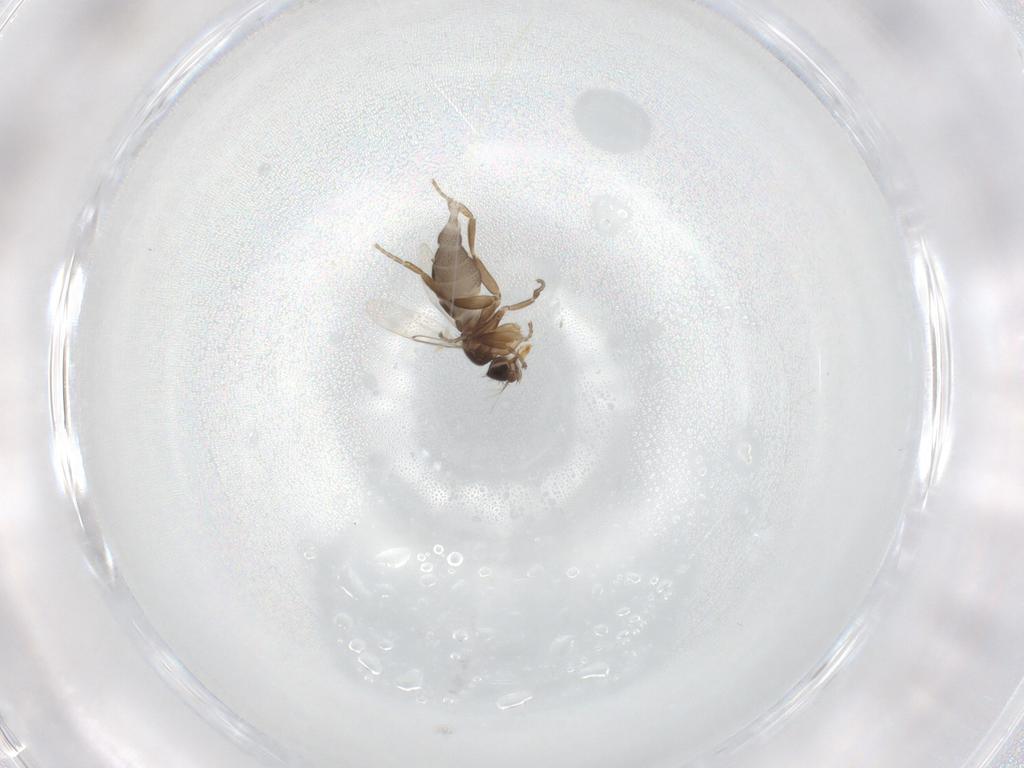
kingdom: Animalia
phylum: Arthropoda
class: Insecta
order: Diptera
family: Phoridae
